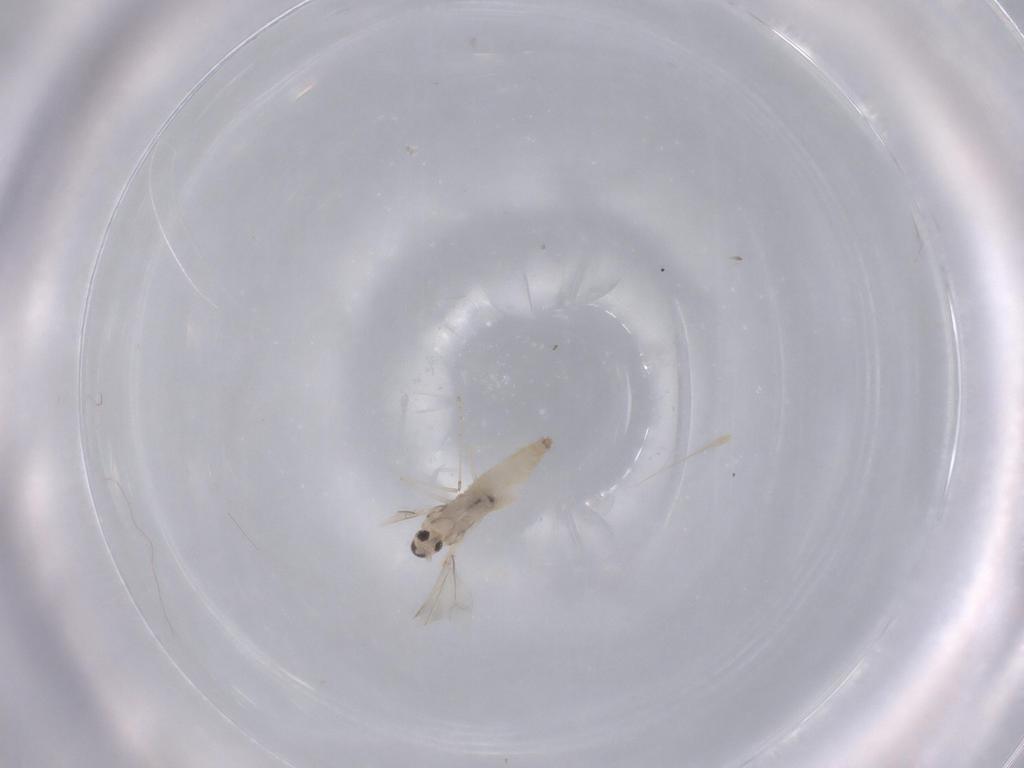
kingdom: Animalia
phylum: Arthropoda
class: Insecta
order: Diptera
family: Cecidomyiidae
